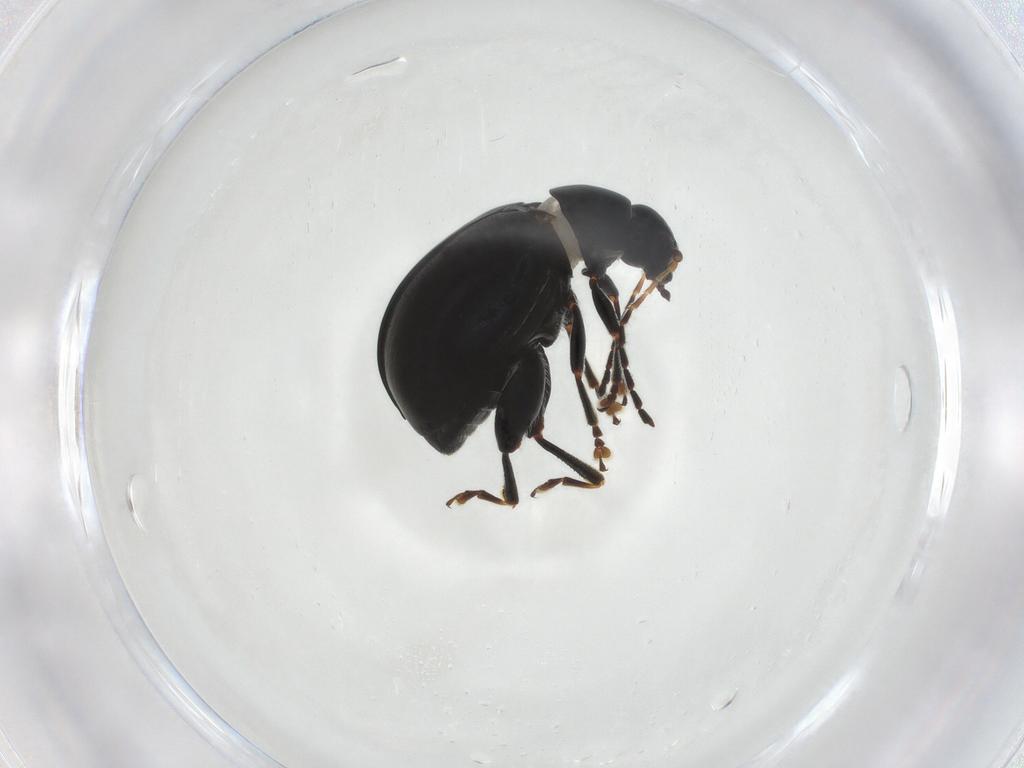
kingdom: Animalia
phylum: Arthropoda
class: Insecta
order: Coleoptera
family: Chrysomelidae
